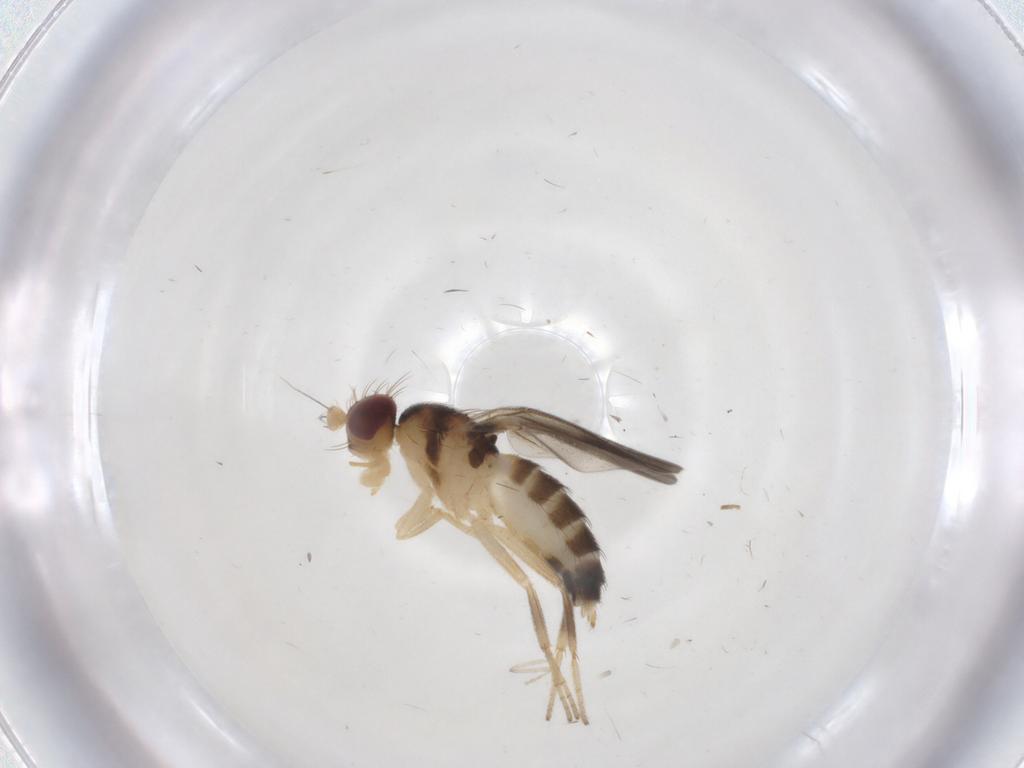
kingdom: Animalia
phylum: Arthropoda
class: Insecta
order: Diptera
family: Clusiidae
